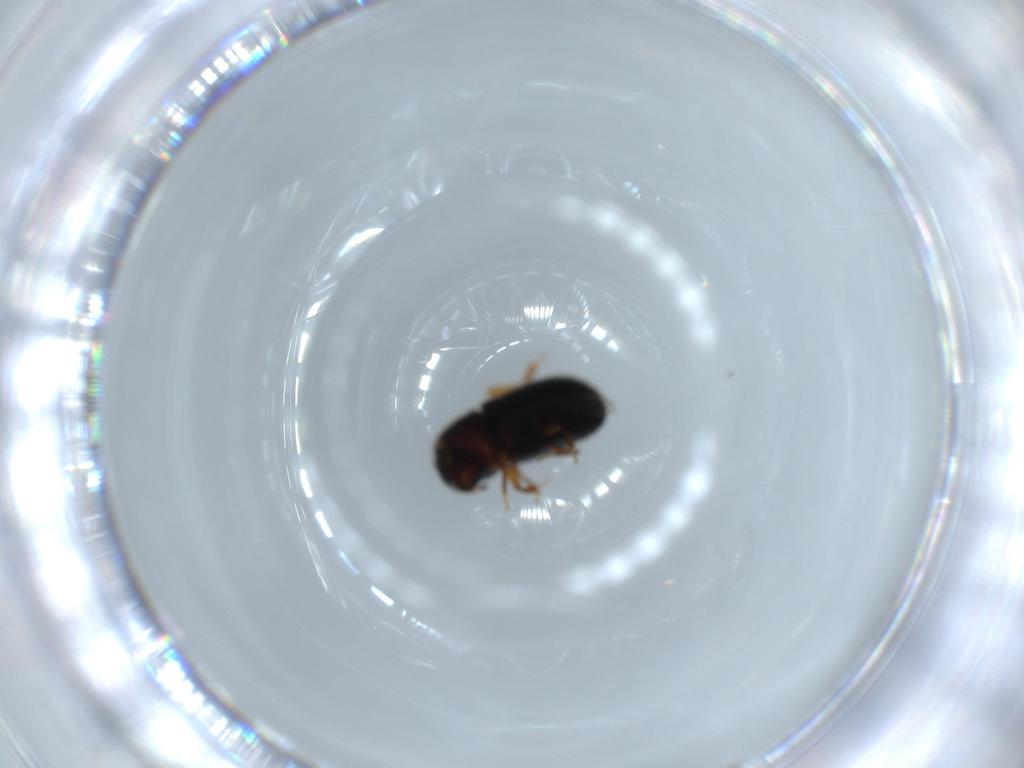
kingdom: Animalia
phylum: Arthropoda
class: Insecta
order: Coleoptera
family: Curculionidae
